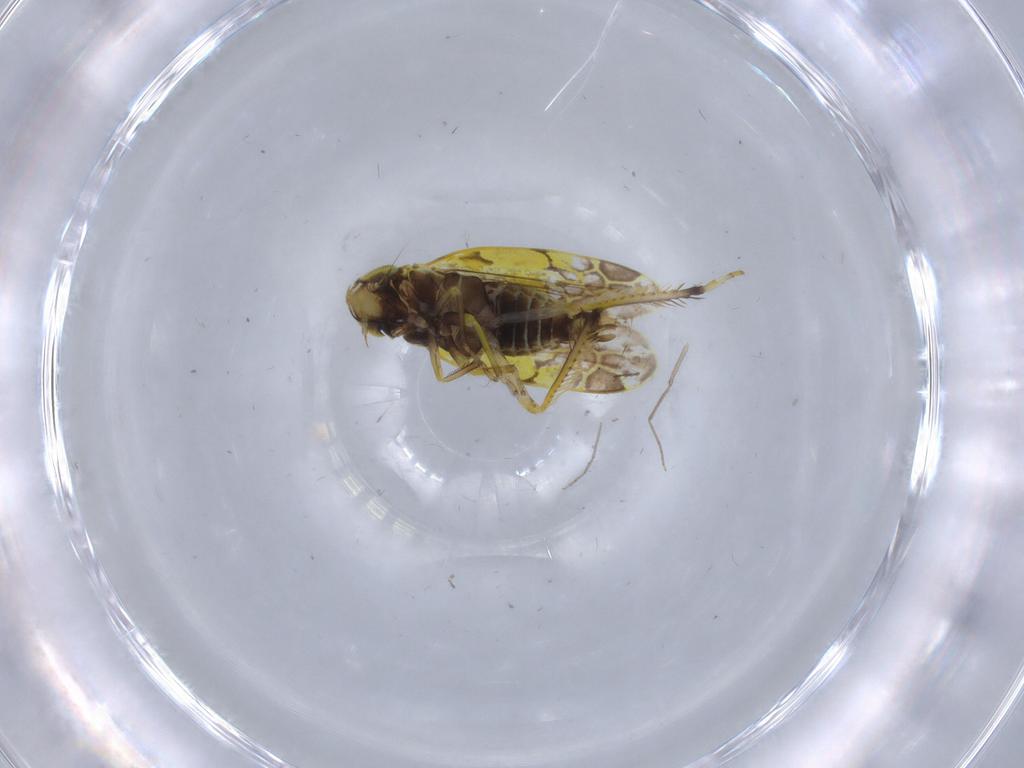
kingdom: Animalia
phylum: Arthropoda
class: Insecta
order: Hemiptera
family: Cicadellidae
